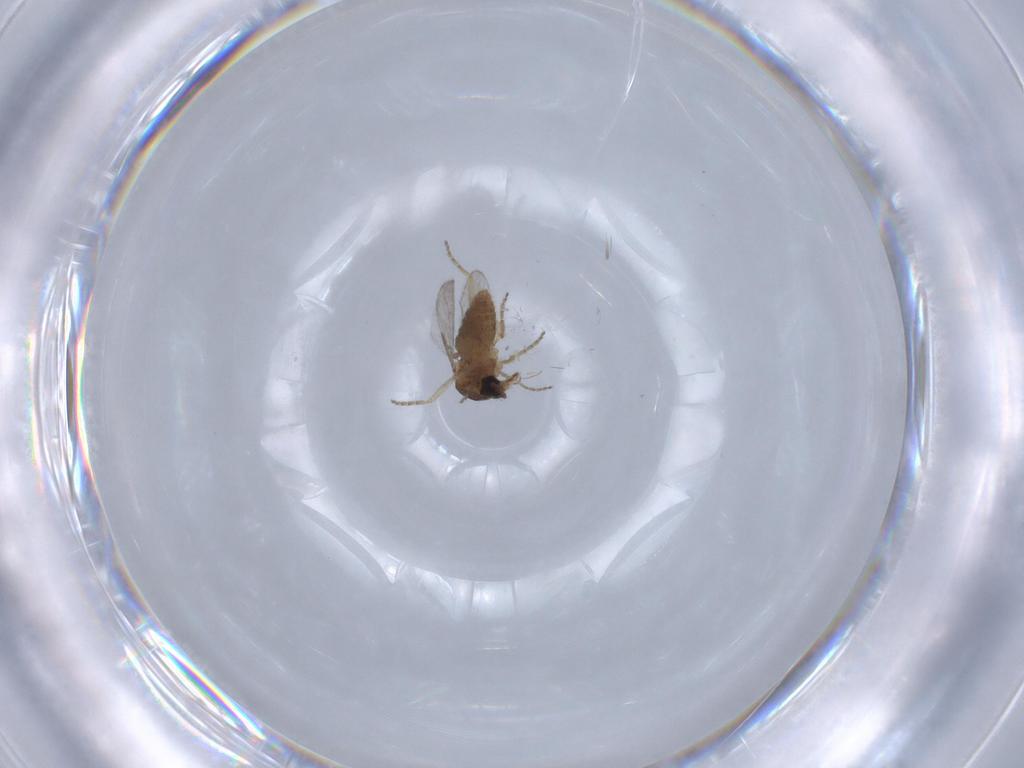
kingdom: Animalia
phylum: Arthropoda
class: Insecta
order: Diptera
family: Ceratopogonidae
